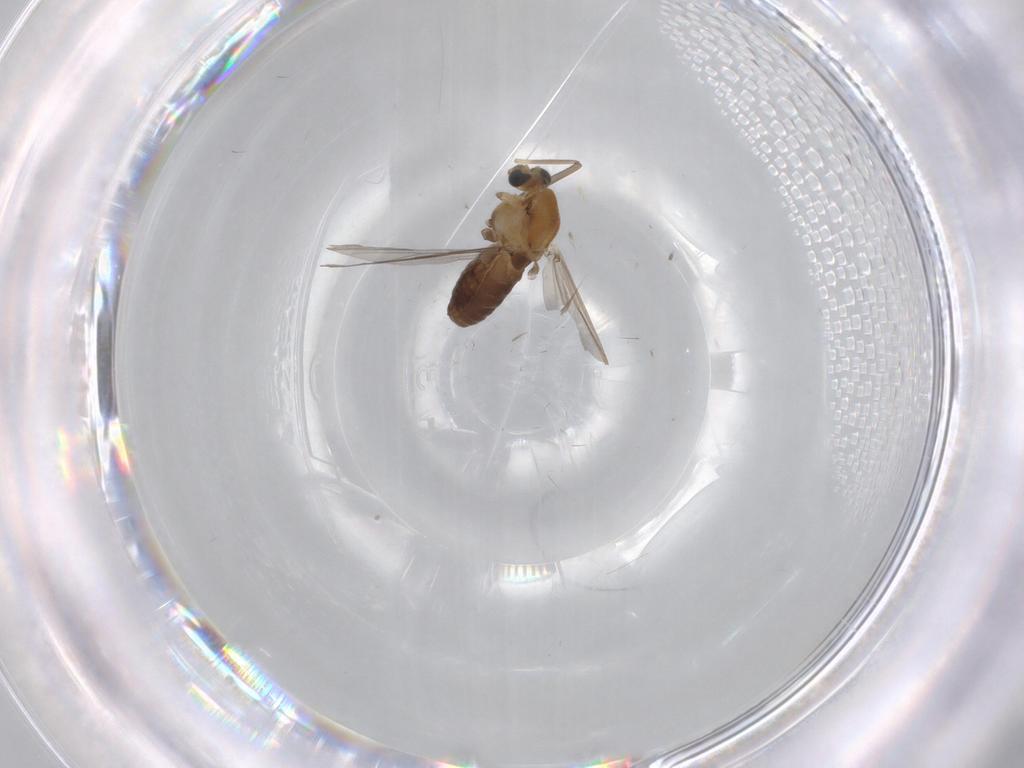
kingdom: Animalia
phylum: Arthropoda
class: Insecta
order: Diptera
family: Chironomidae
